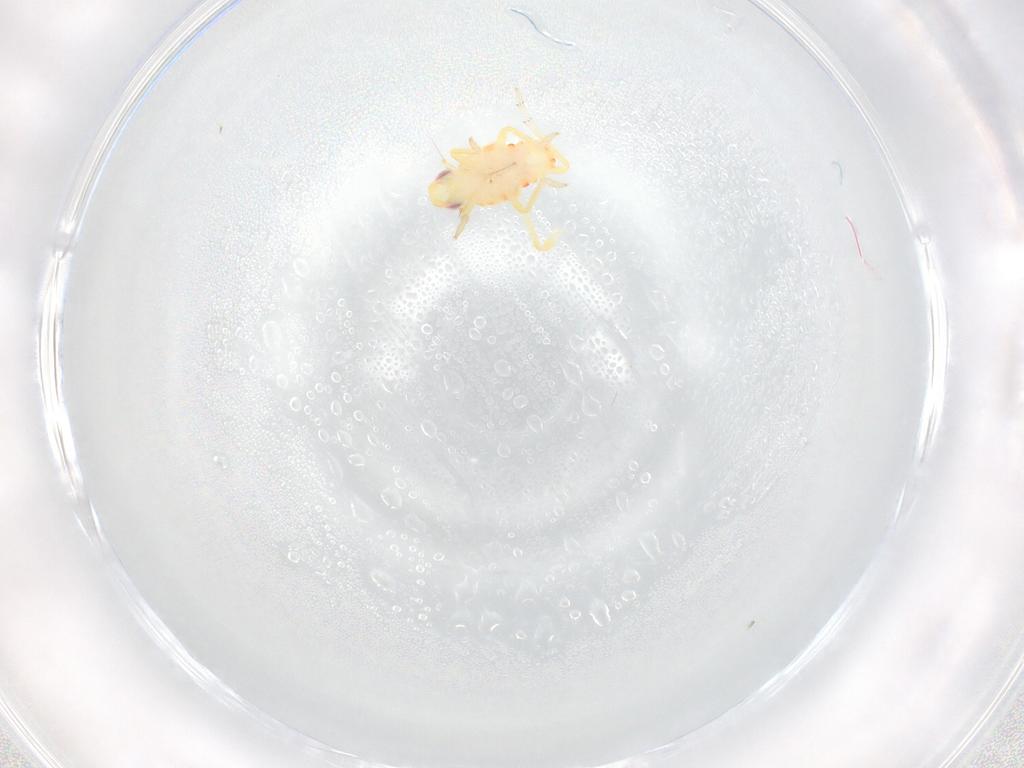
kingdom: Animalia
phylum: Arthropoda
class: Insecta
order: Hemiptera
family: Tropiduchidae
